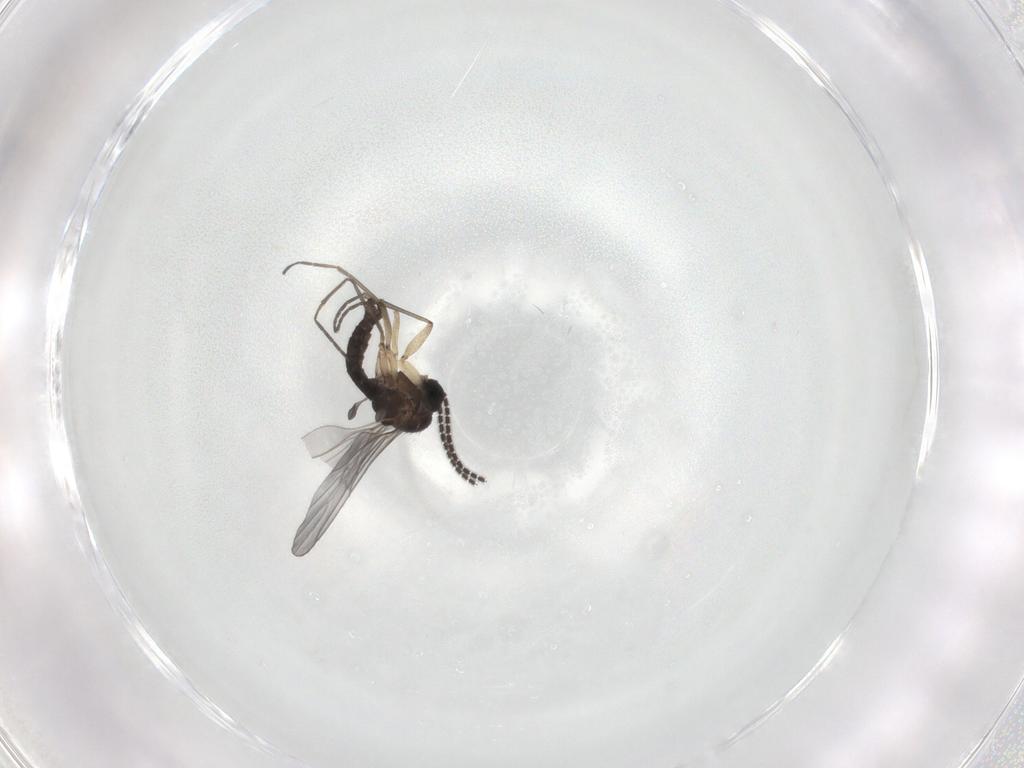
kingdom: Animalia
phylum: Arthropoda
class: Insecta
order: Diptera
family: Sciaridae
